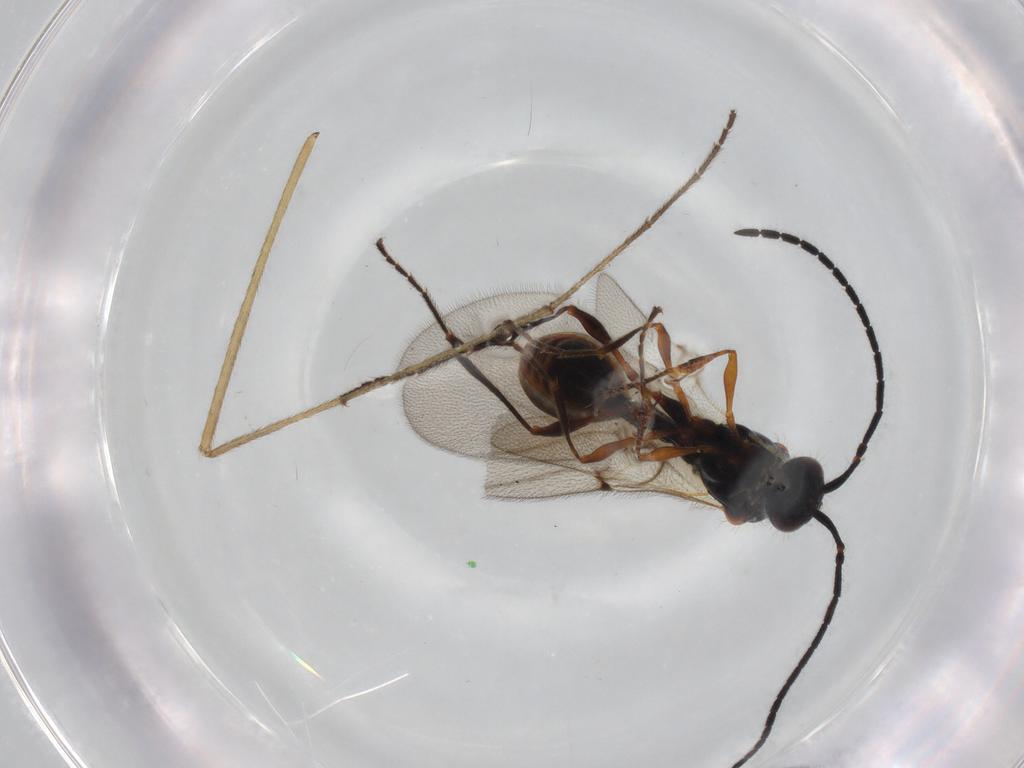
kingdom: Animalia
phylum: Arthropoda
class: Insecta
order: Hymenoptera
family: Diapriidae
